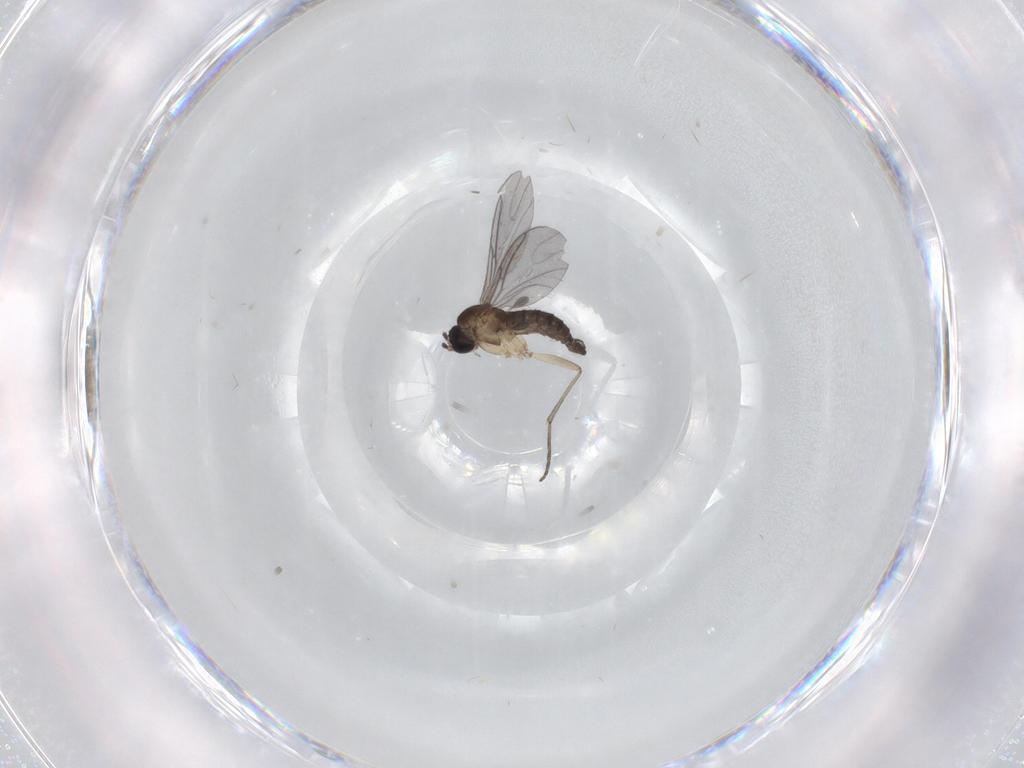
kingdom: Animalia
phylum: Arthropoda
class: Insecta
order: Diptera
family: Sciaridae
